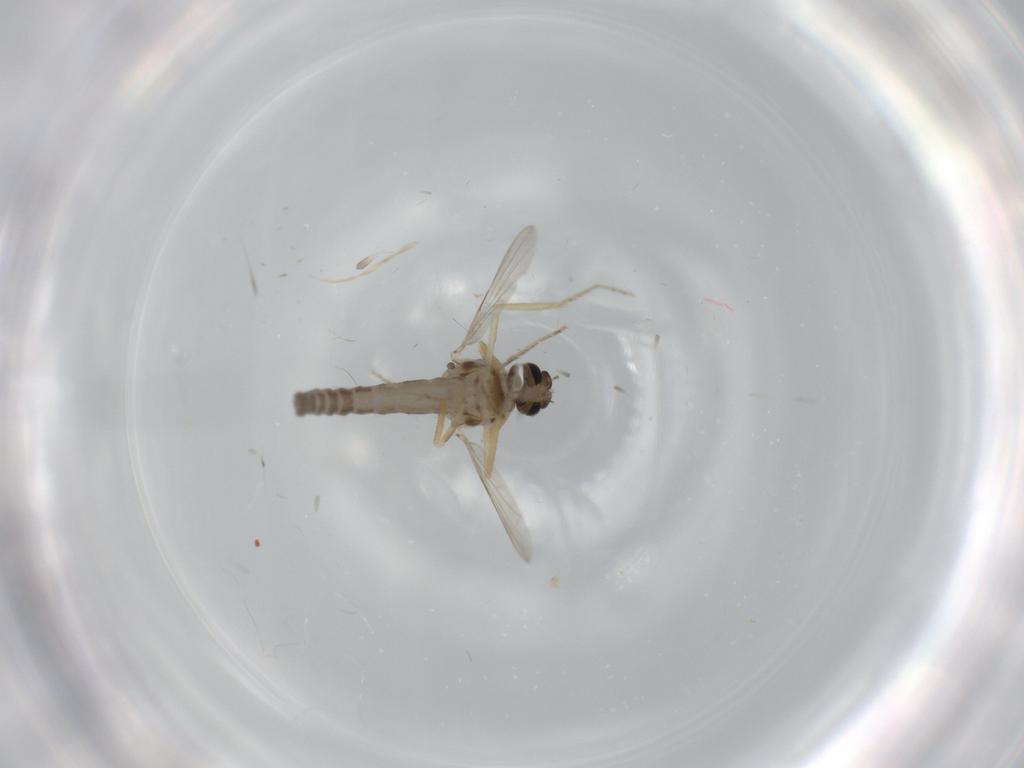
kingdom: Animalia
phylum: Arthropoda
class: Insecta
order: Diptera
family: Ceratopogonidae
